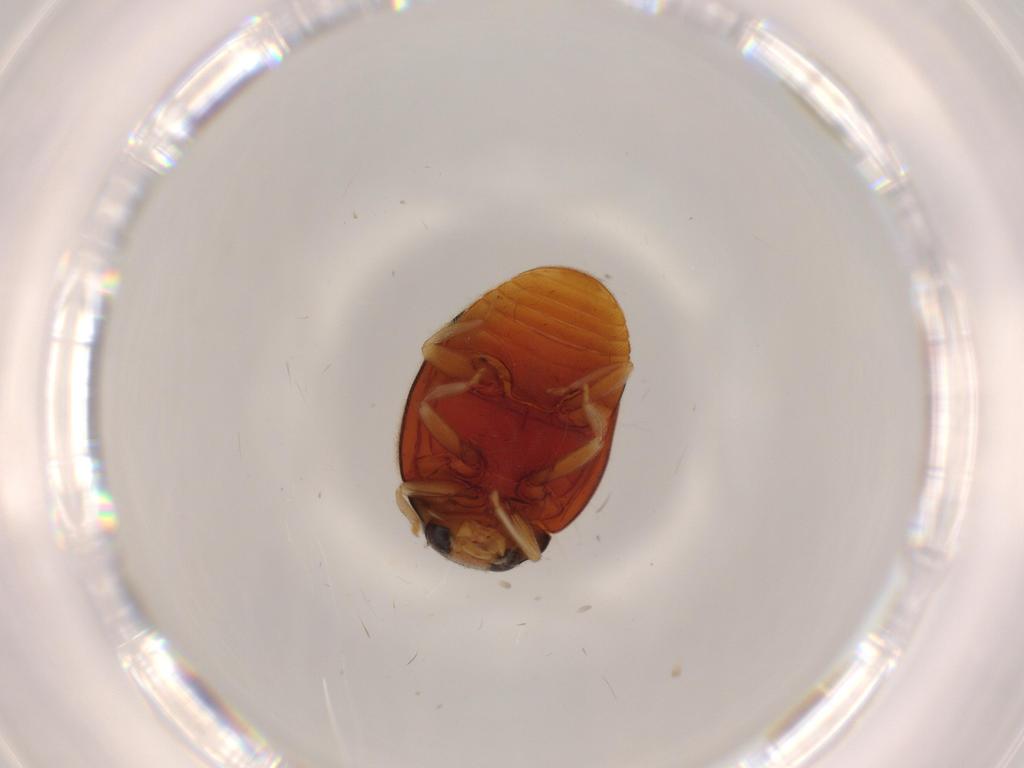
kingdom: Animalia
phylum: Arthropoda
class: Insecta
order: Coleoptera
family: Coccinellidae
